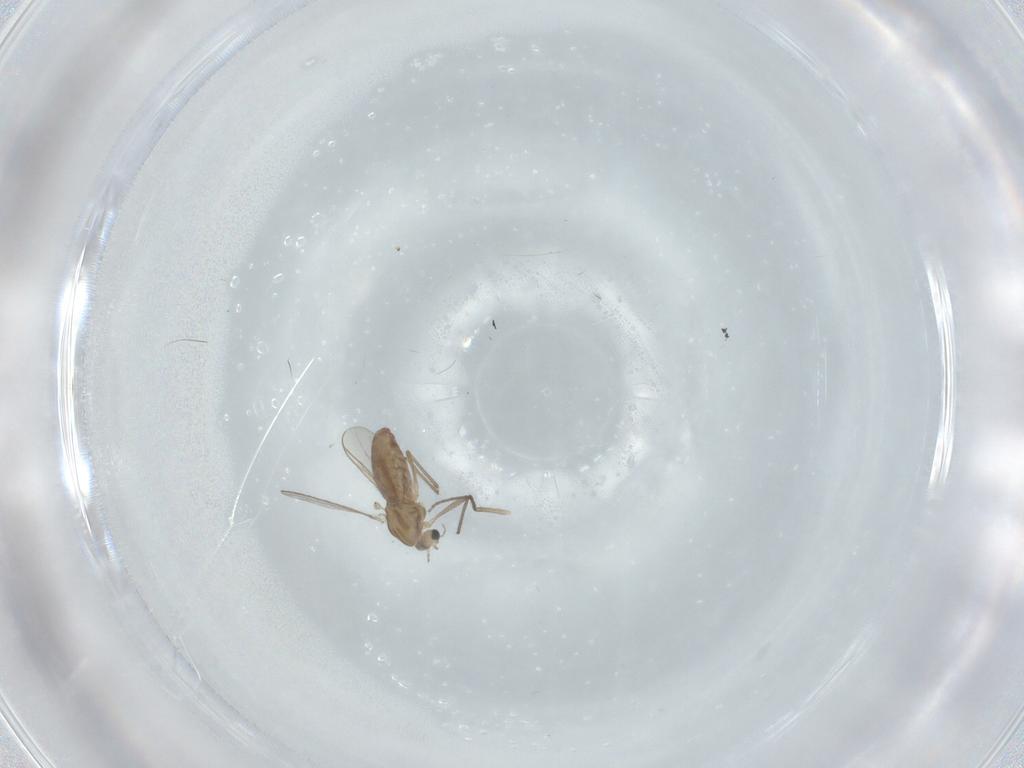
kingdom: Animalia
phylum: Arthropoda
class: Insecta
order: Diptera
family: Chironomidae
